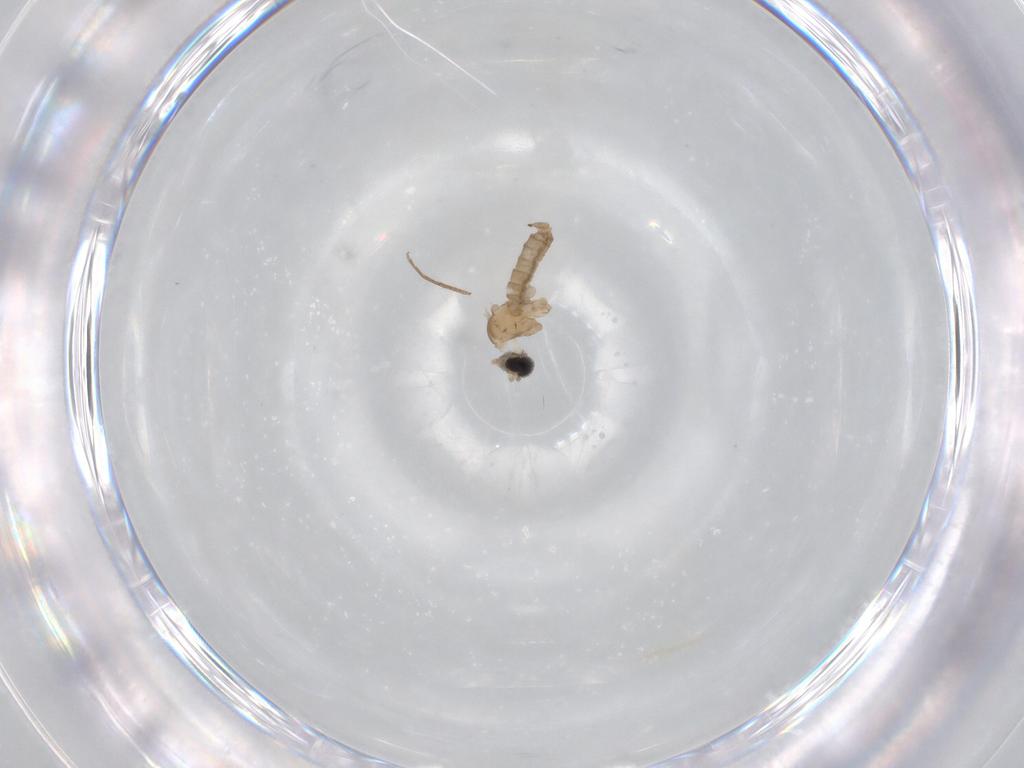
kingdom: Animalia
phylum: Arthropoda
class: Insecta
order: Diptera
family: Cecidomyiidae
